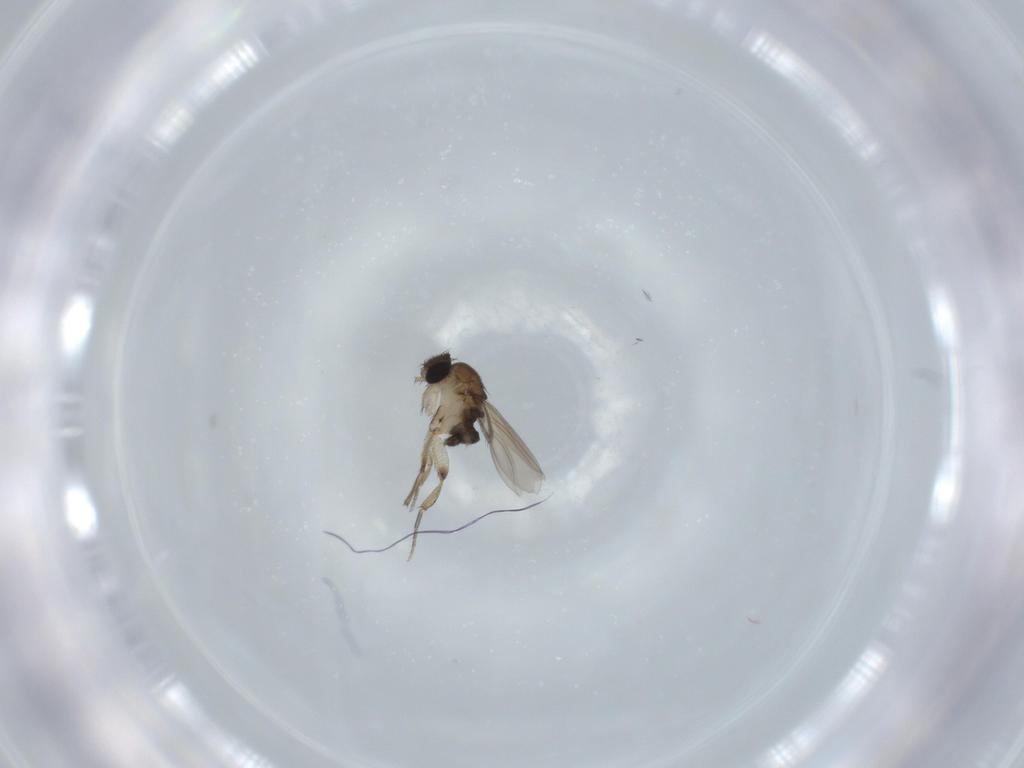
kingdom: Animalia
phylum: Arthropoda
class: Insecta
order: Diptera
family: Phoridae
